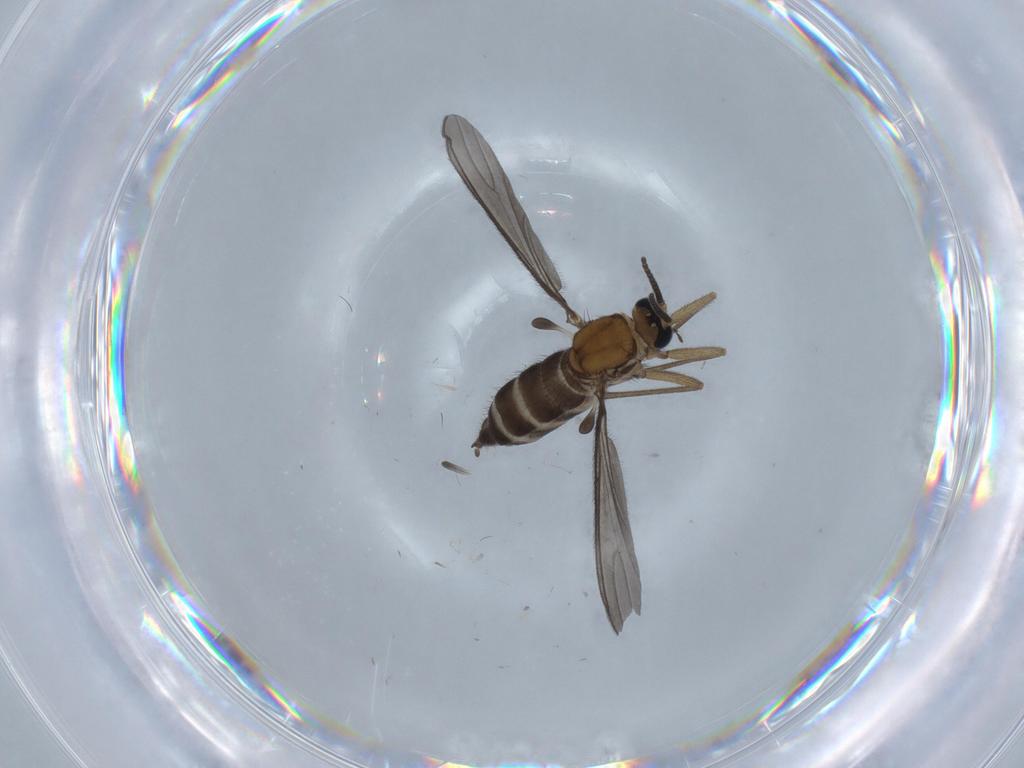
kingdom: Animalia
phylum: Arthropoda
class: Insecta
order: Diptera
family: Sciaridae
